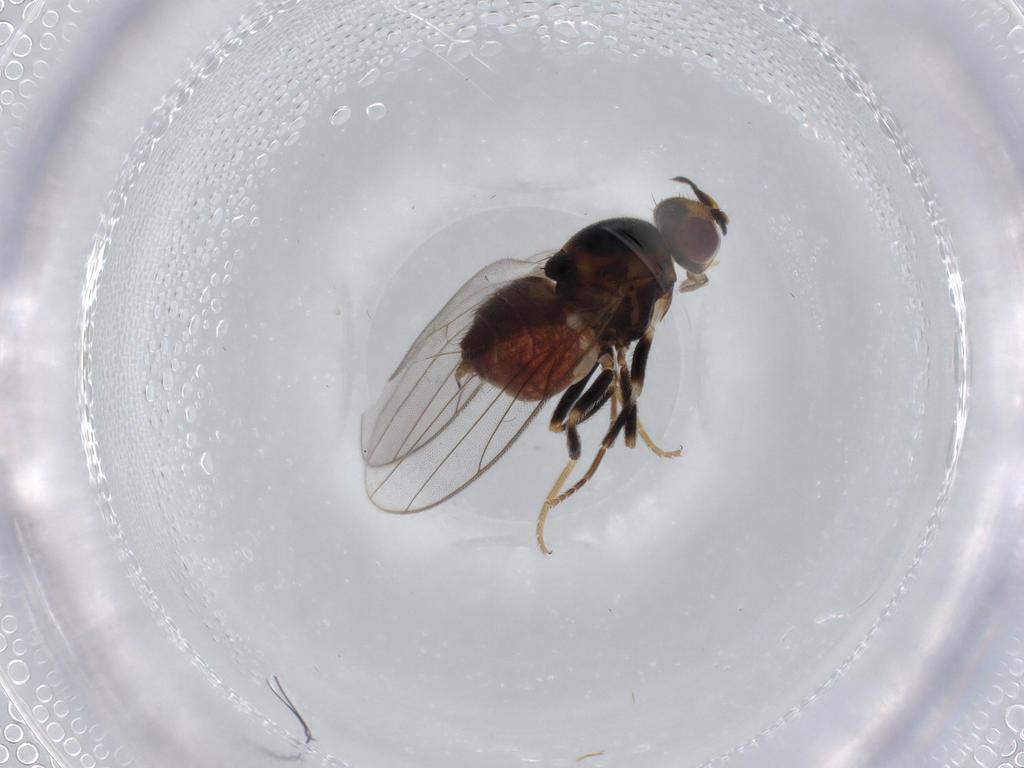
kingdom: Animalia
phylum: Arthropoda
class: Insecta
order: Diptera
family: Chloropidae
